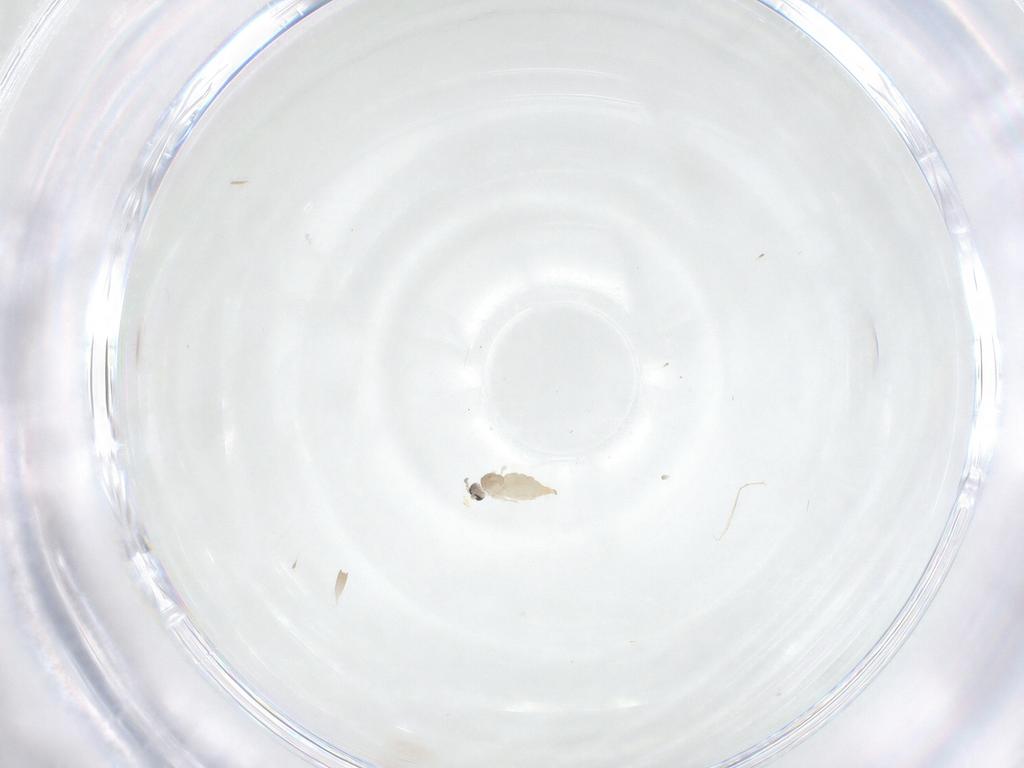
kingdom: Animalia
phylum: Arthropoda
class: Insecta
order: Diptera
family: Cecidomyiidae
